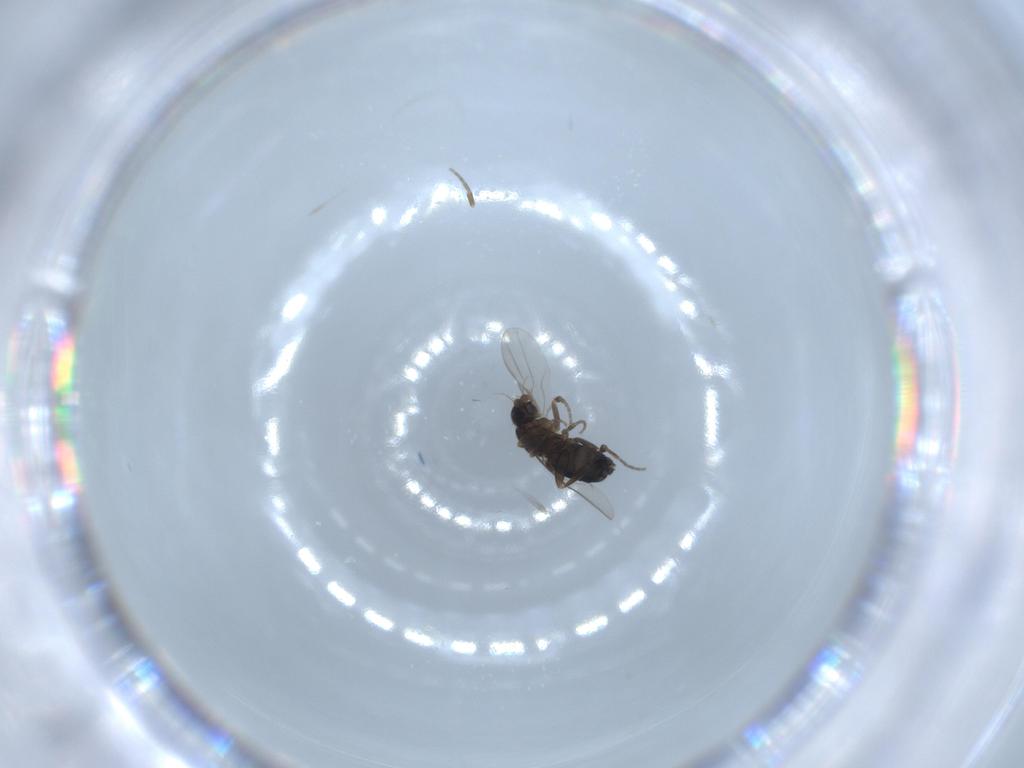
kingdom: Animalia
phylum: Arthropoda
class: Insecta
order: Diptera
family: Phoridae
